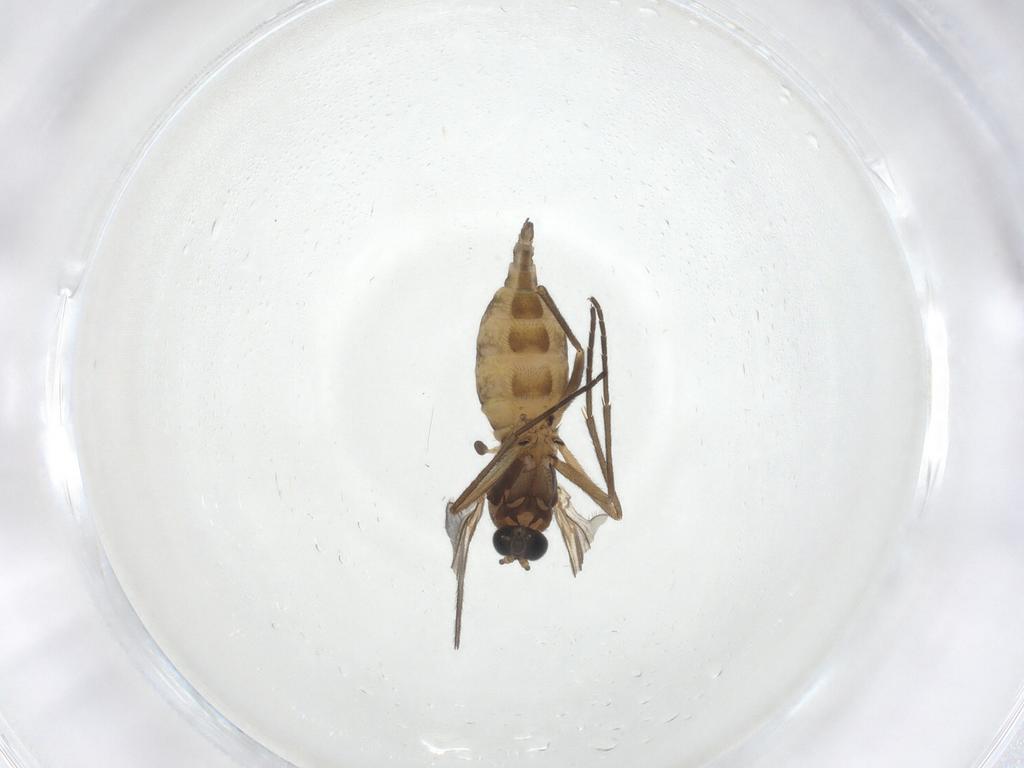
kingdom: Animalia
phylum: Arthropoda
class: Insecta
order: Diptera
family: Sciaridae
